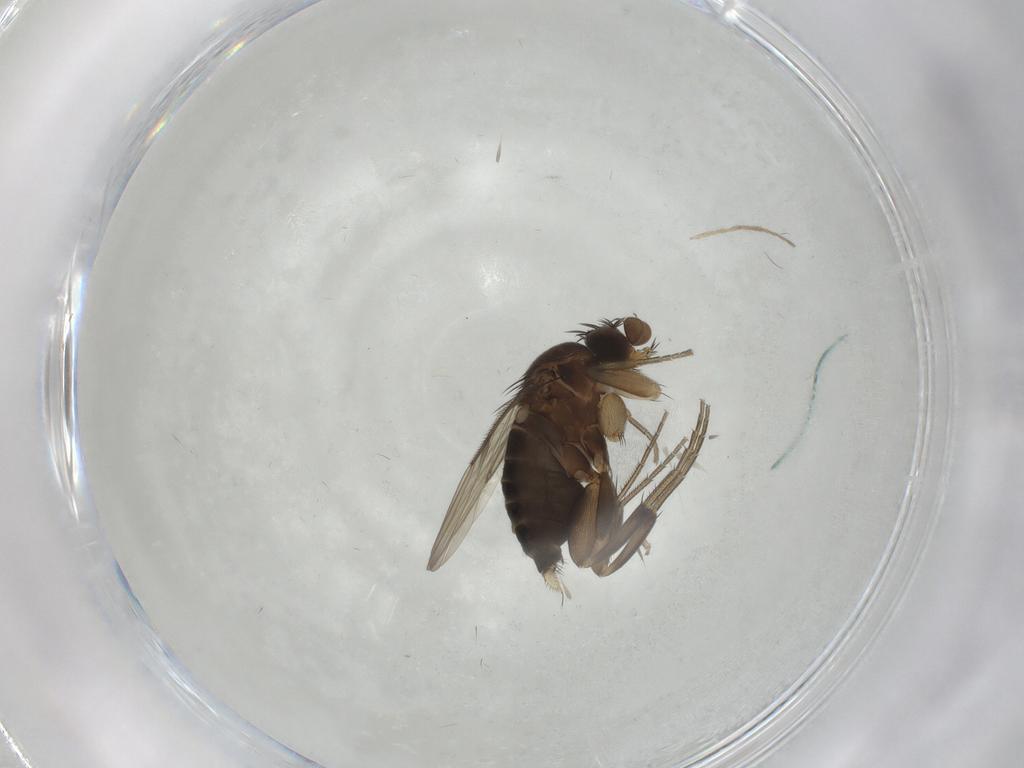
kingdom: Animalia
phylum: Arthropoda
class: Insecta
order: Diptera
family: Phoridae
